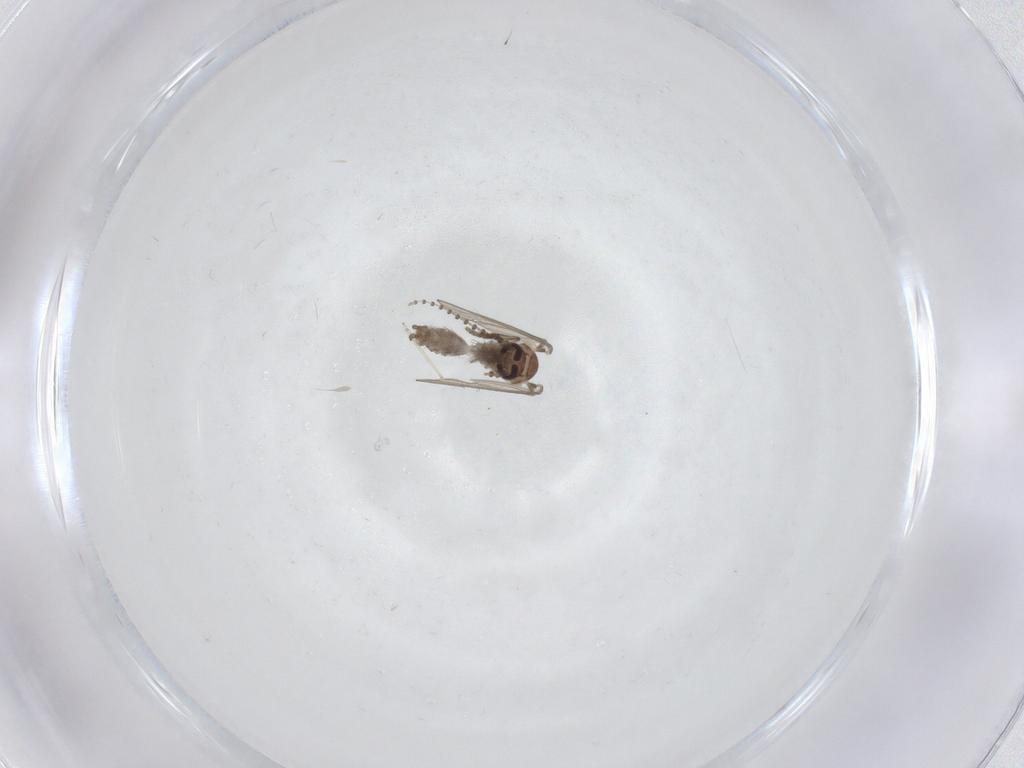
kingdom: Animalia
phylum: Arthropoda
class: Insecta
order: Diptera
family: Psychodidae
